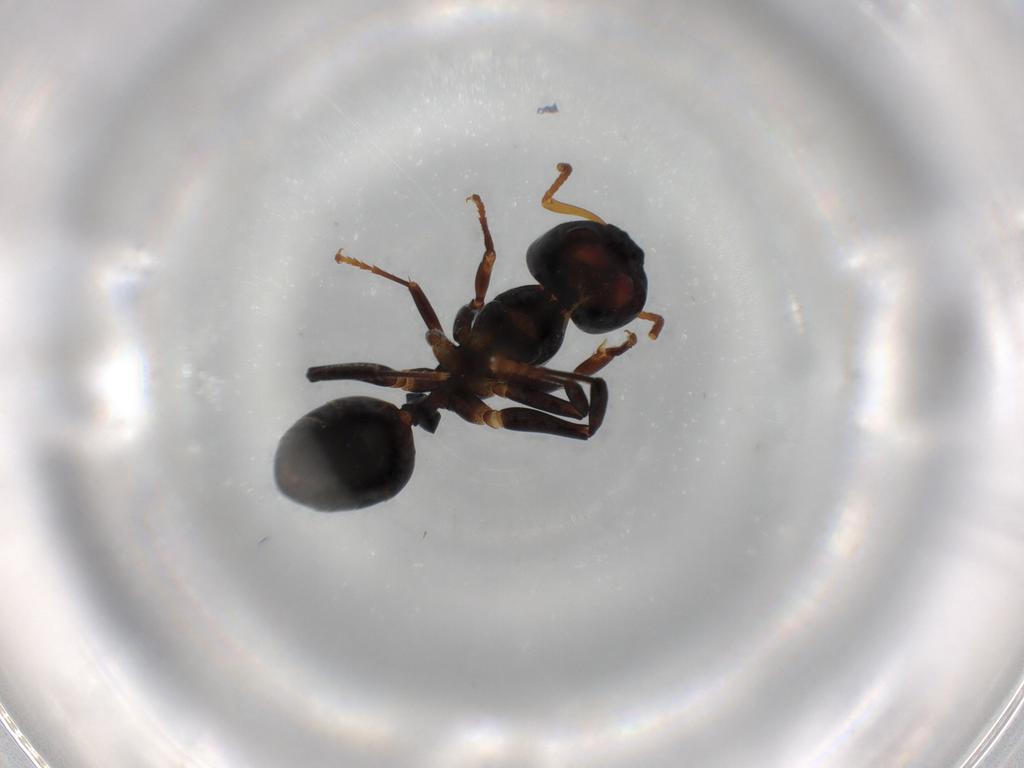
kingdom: Animalia
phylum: Arthropoda
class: Insecta
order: Hymenoptera
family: Formicidae
